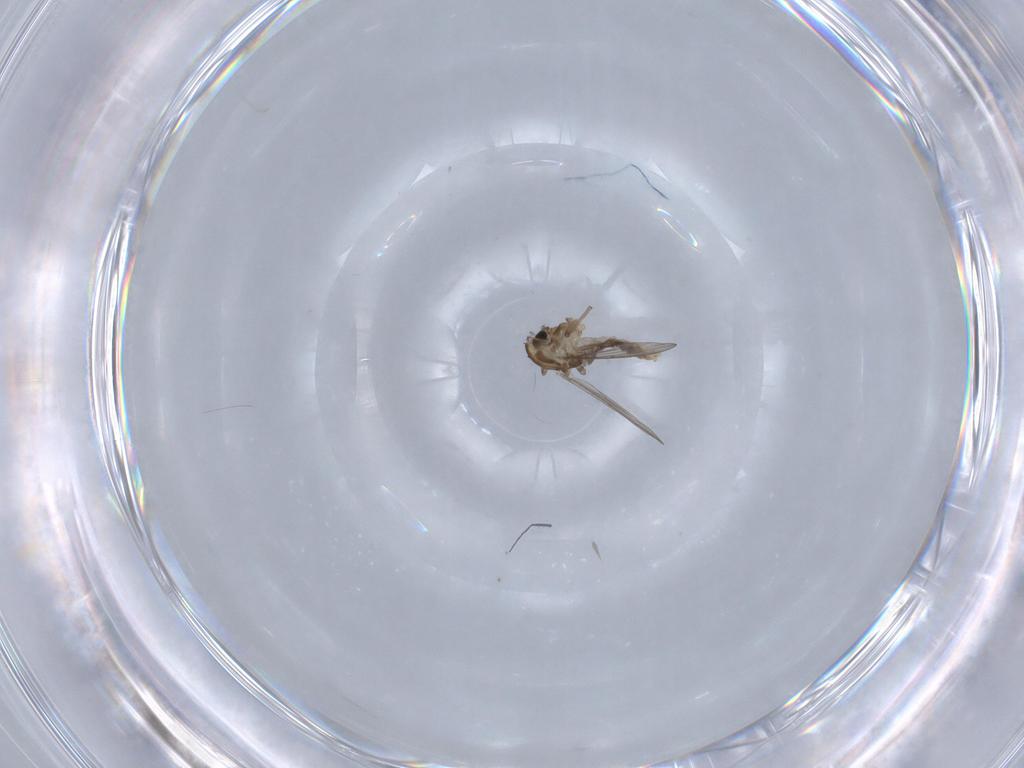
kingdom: Animalia
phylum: Arthropoda
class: Insecta
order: Diptera
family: Chironomidae
